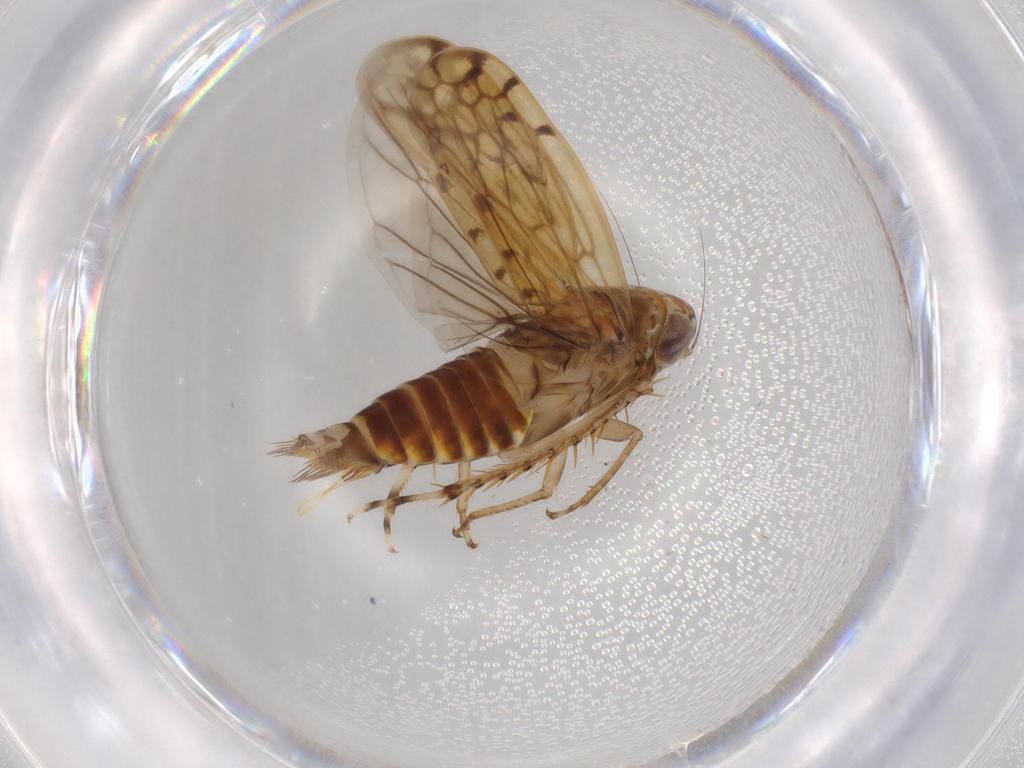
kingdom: Animalia
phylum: Arthropoda
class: Insecta
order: Hemiptera
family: Cicadellidae
